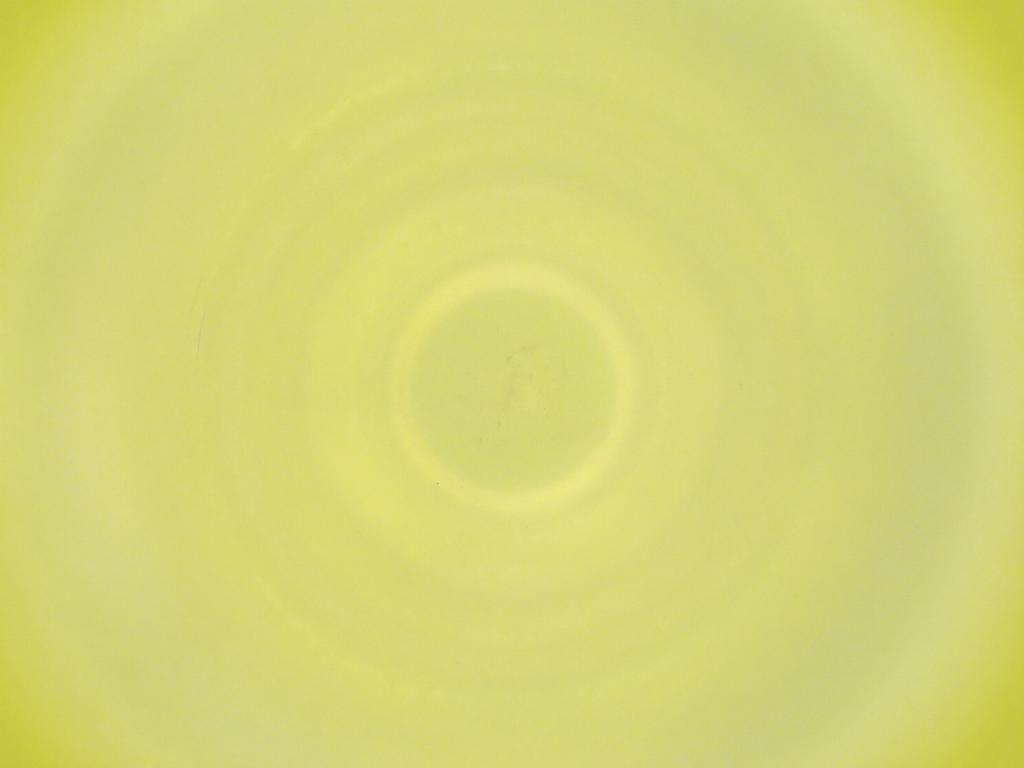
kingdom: Animalia
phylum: Arthropoda
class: Insecta
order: Diptera
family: Cecidomyiidae
